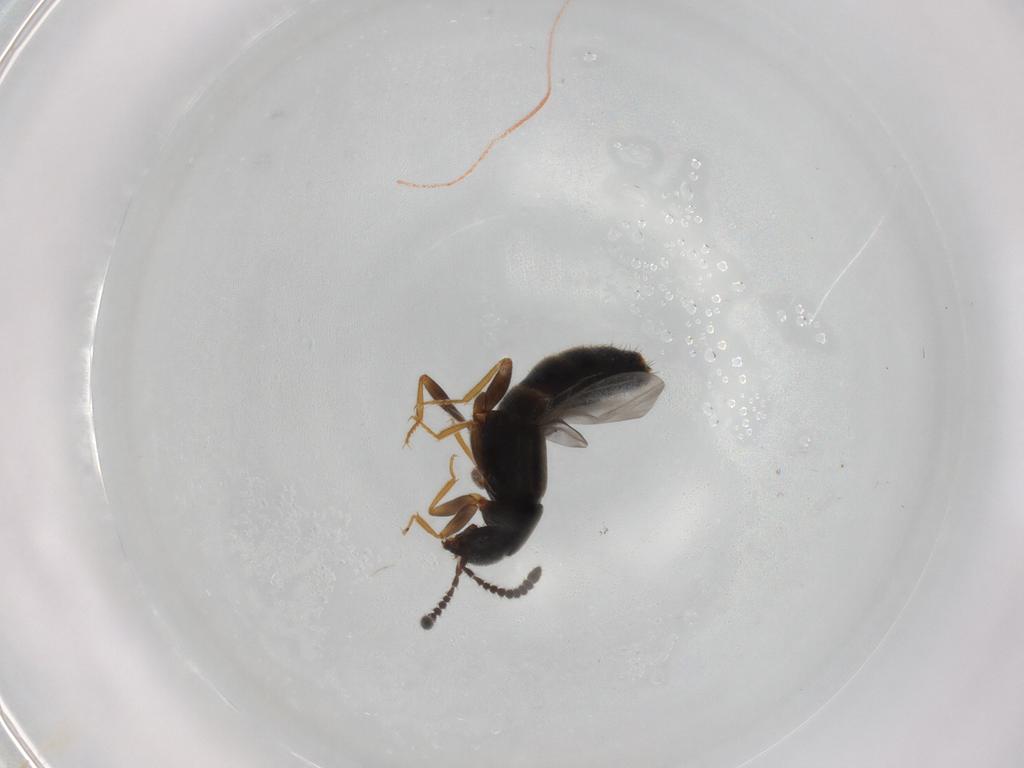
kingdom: Animalia
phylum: Arthropoda
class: Insecta
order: Coleoptera
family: Staphylinidae
